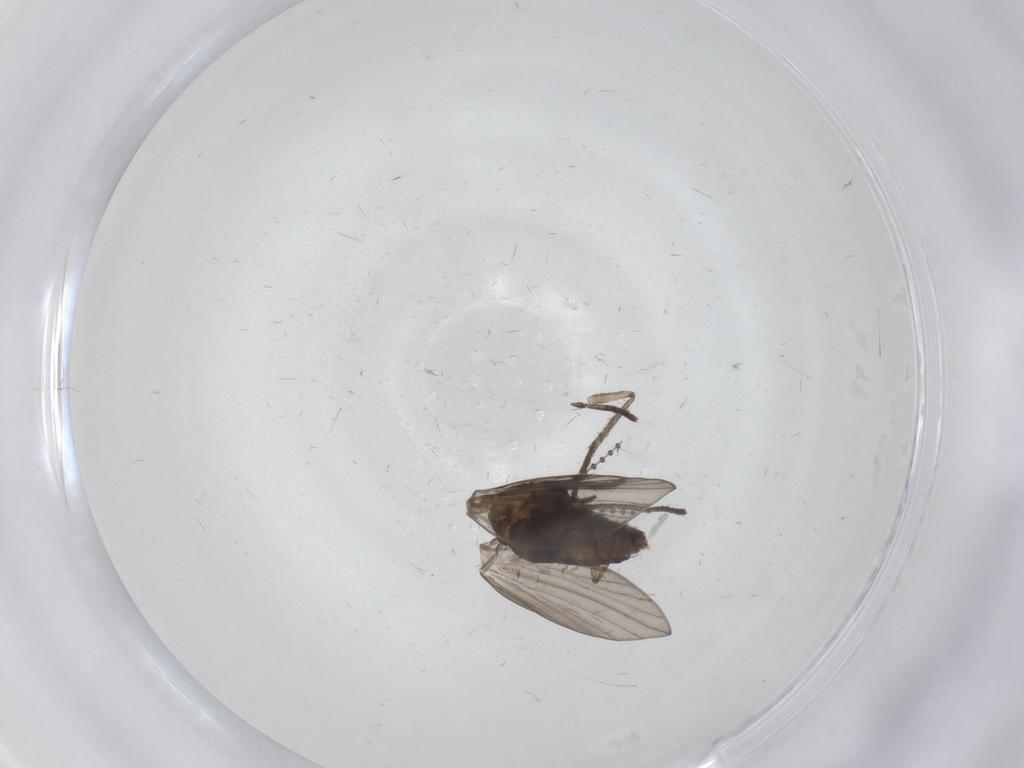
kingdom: Animalia
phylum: Arthropoda
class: Insecta
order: Diptera
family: Psychodidae
